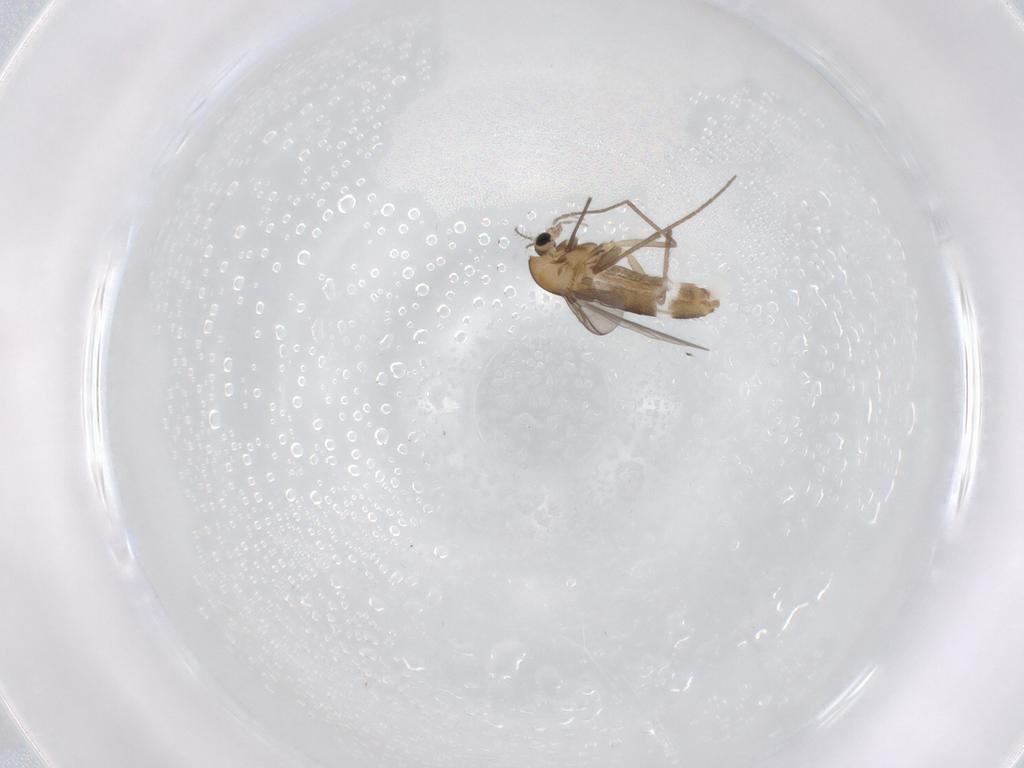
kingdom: Animalia
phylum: Arthropoda
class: Insecta
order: Diptera
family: Chironomidae
